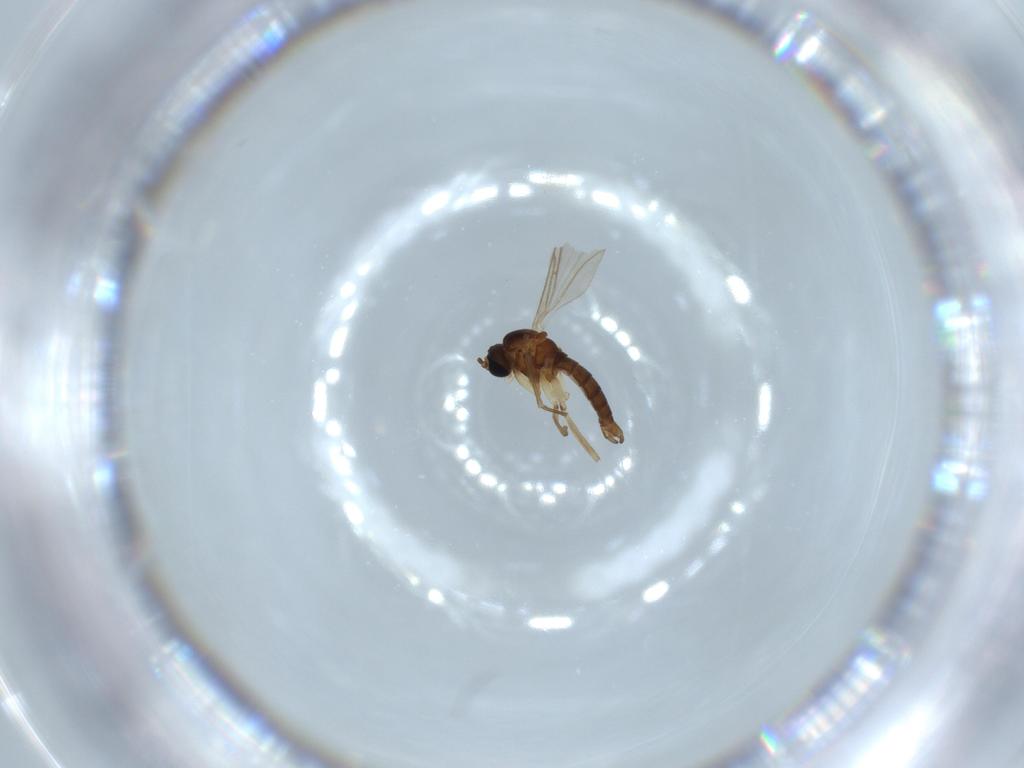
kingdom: Animalia
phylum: Arthropoda
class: Insecta
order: Diptera
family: Sciaridae
